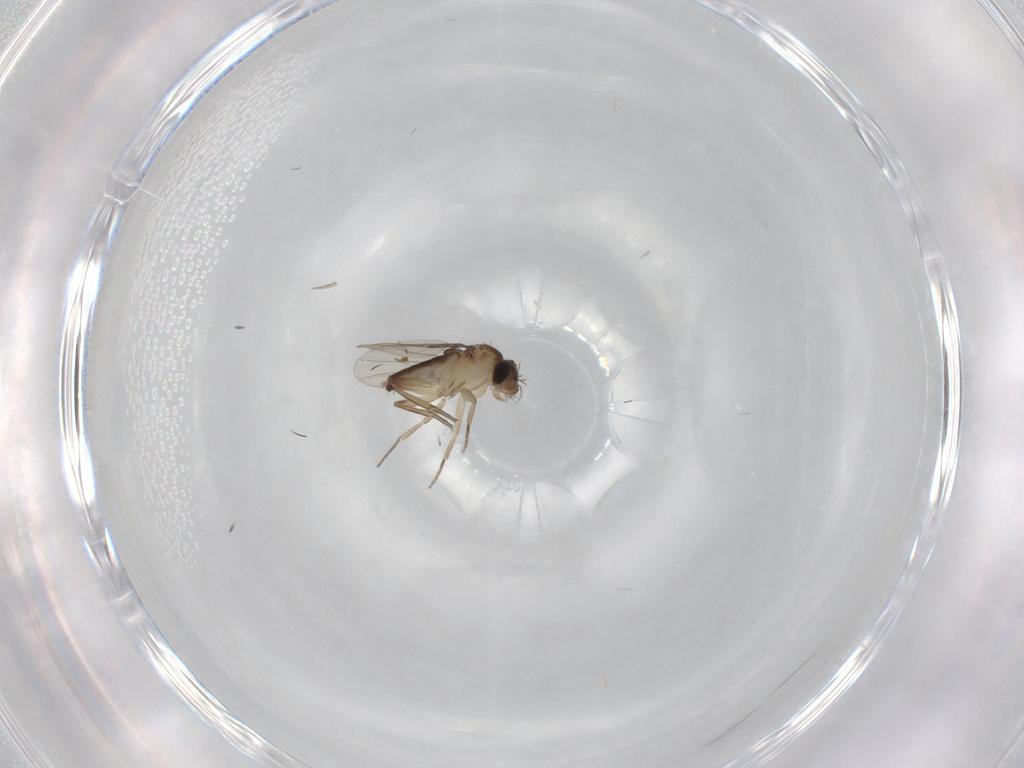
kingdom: Animalia
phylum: Arthropoda
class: Insecta
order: Diptera
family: Phoridae
